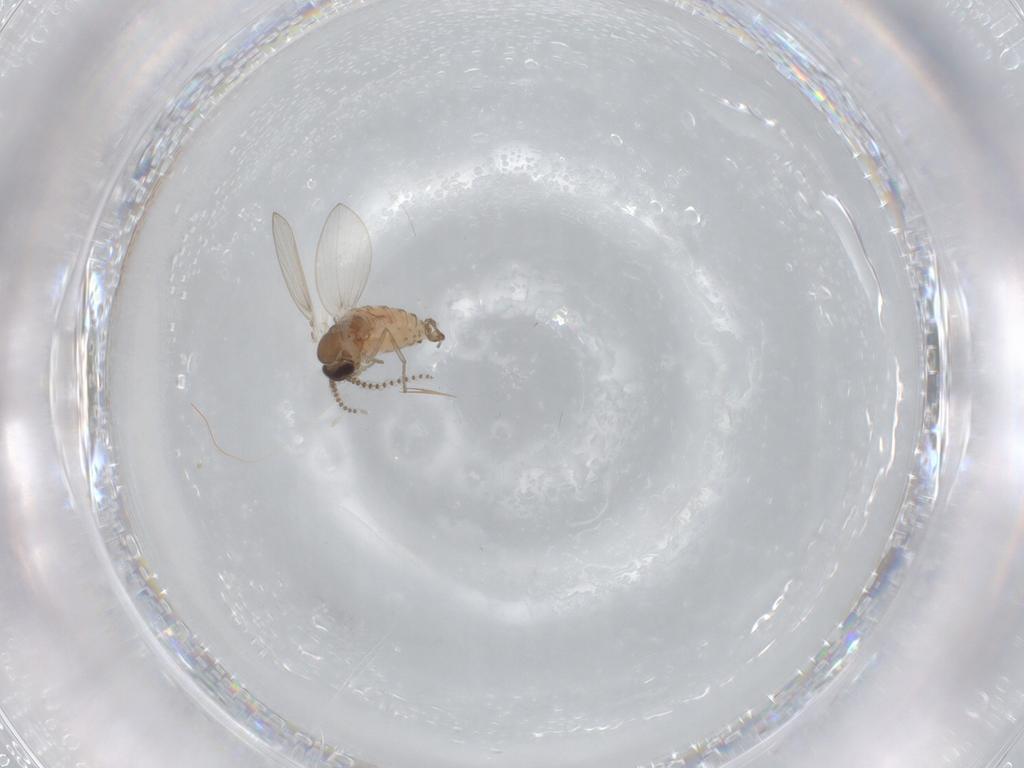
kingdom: Animalia
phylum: Arthropoda
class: Insecta
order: Diptera
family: Psychodidae
